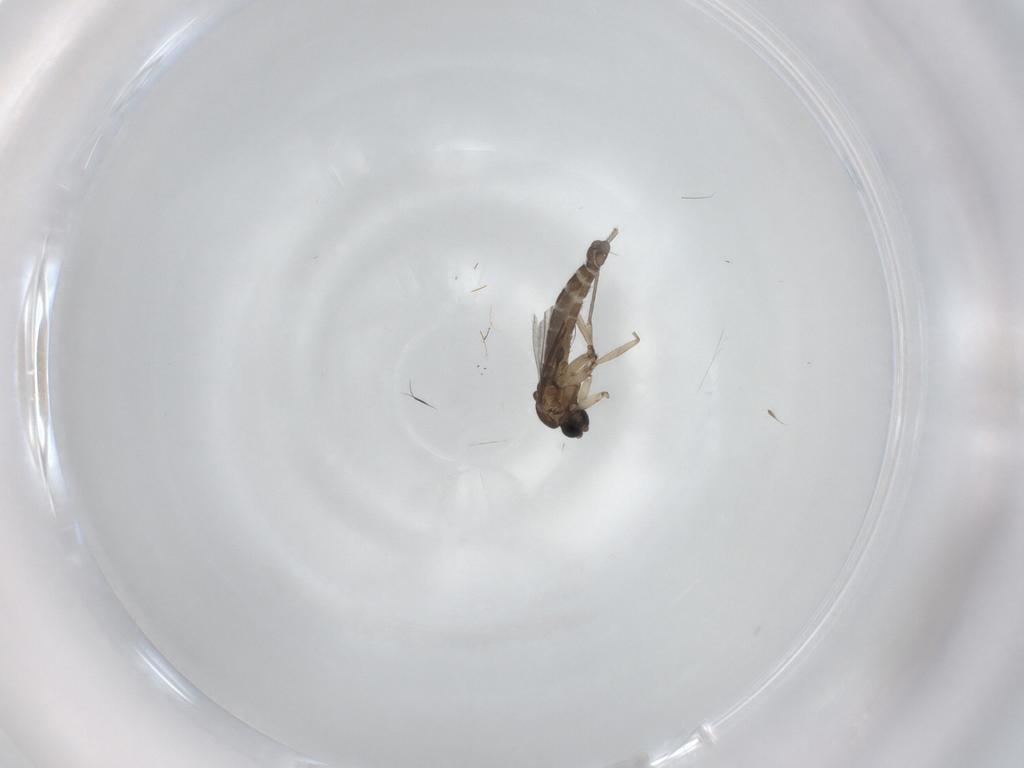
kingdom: Animalia
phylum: Arthropoda
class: Insecta
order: Diptera
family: Sciaridae
